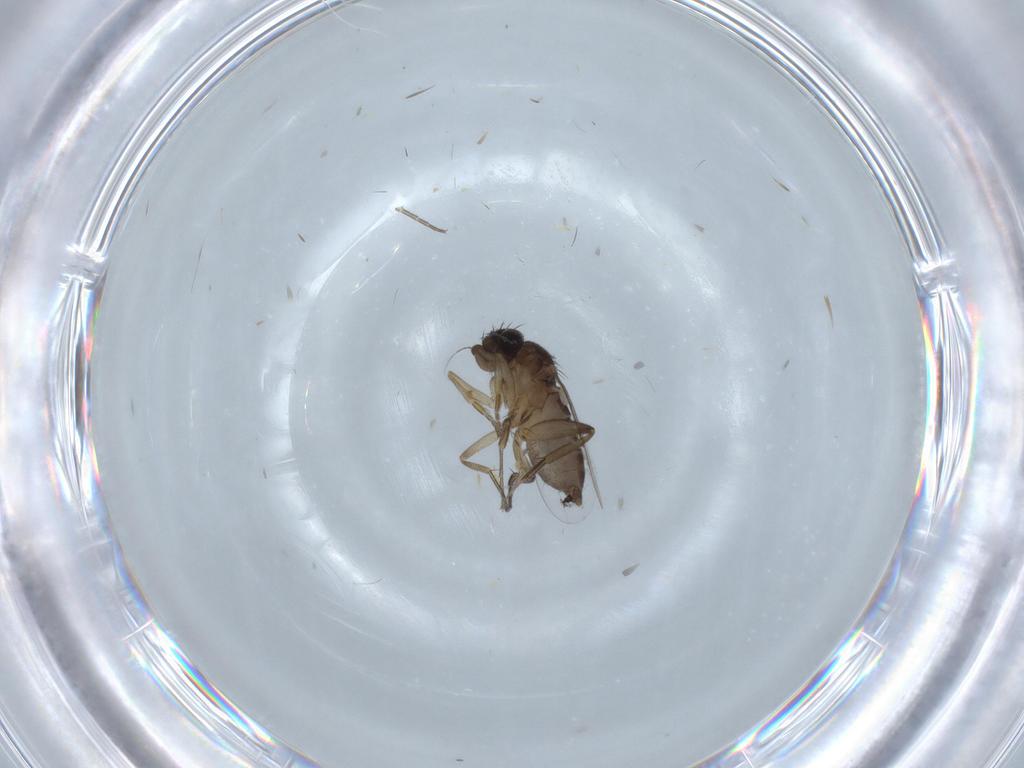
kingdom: Animalia
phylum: Arthropoda
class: Insecta
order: Diptera
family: Phoridae
